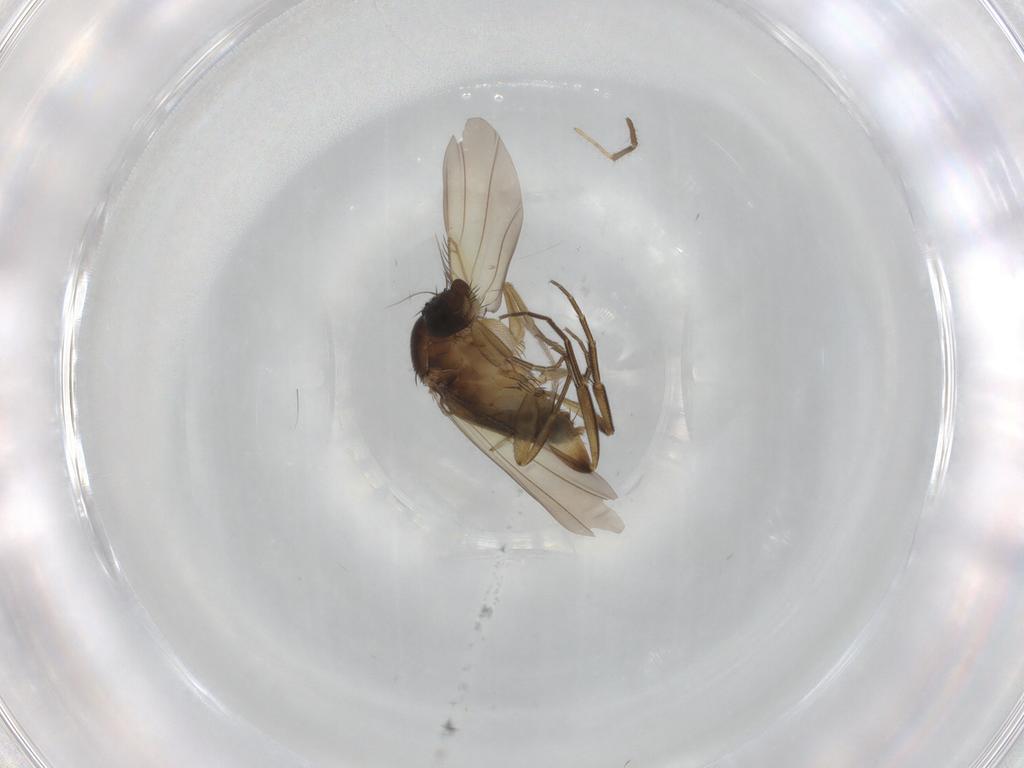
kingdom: Animalia
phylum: Arthropoda
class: Insecta
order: Diptera
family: Phoridae
